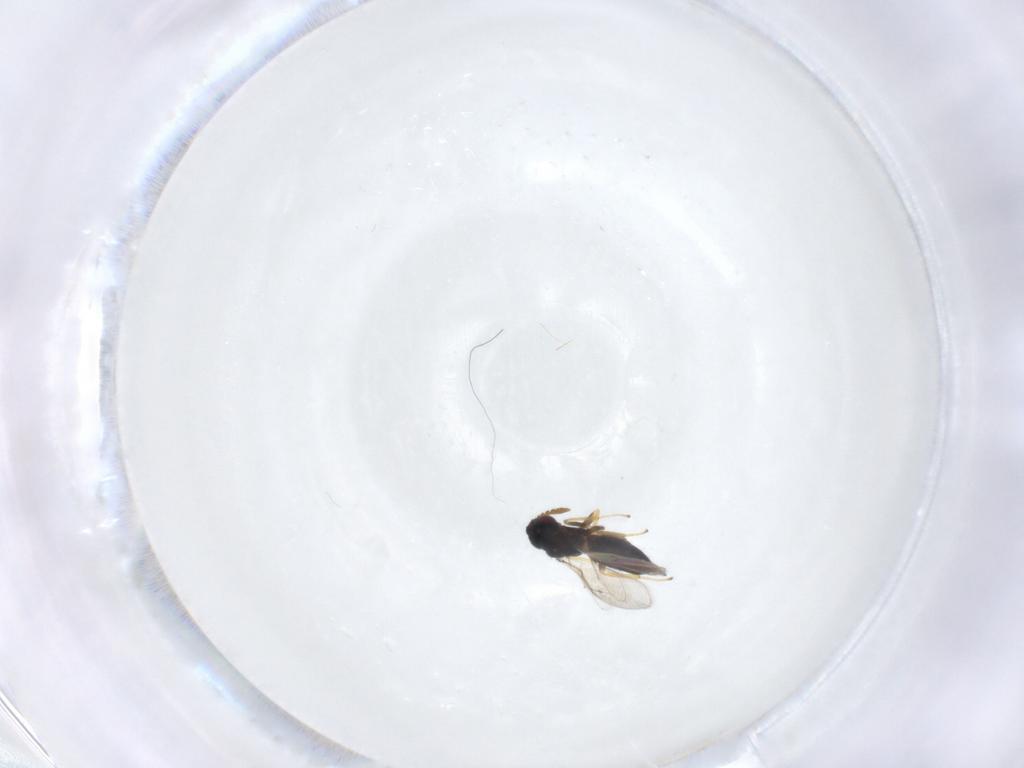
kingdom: Animalia
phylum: Arthropoda
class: Insecta
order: Hymenoptera
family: Pirenidae
